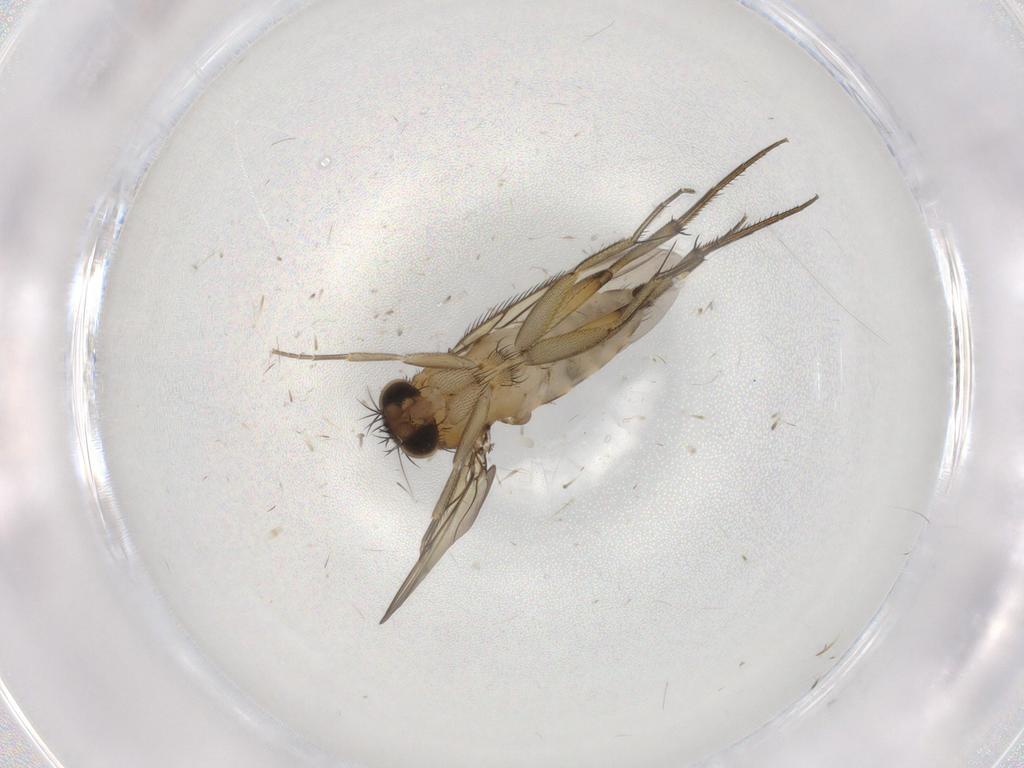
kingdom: Animalia
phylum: Arthropoda
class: Insecta
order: Diptera
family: Phoridae
